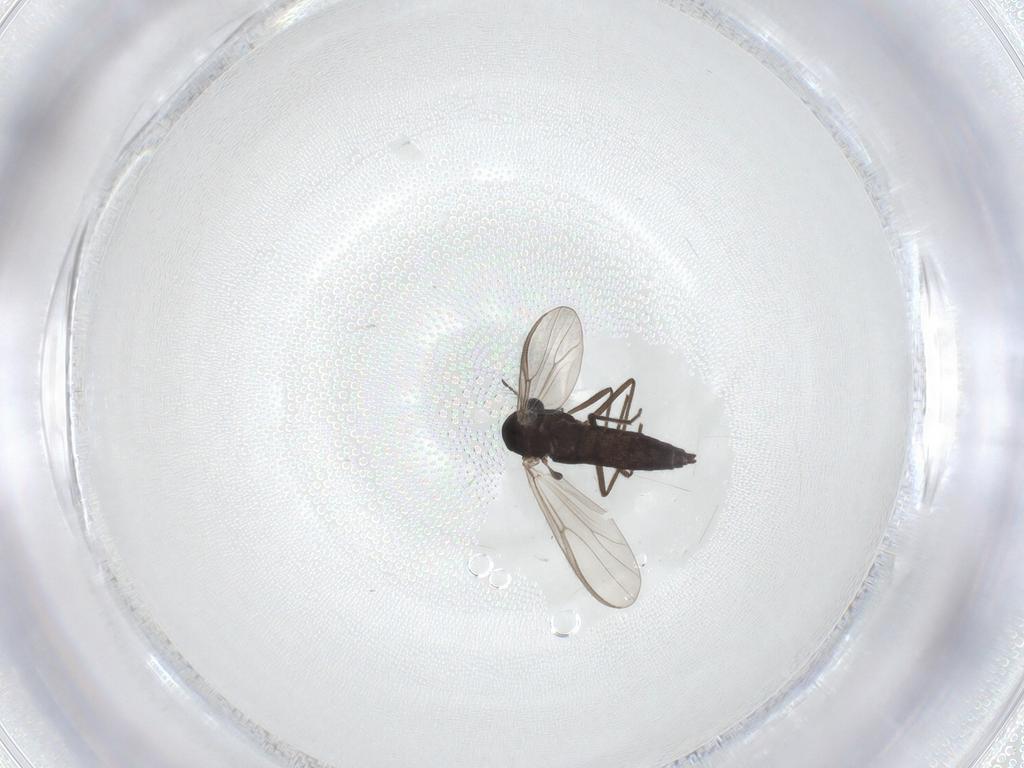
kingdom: Animalia
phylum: Arthropoda
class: Insecta
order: Diptera
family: Chironomidae
